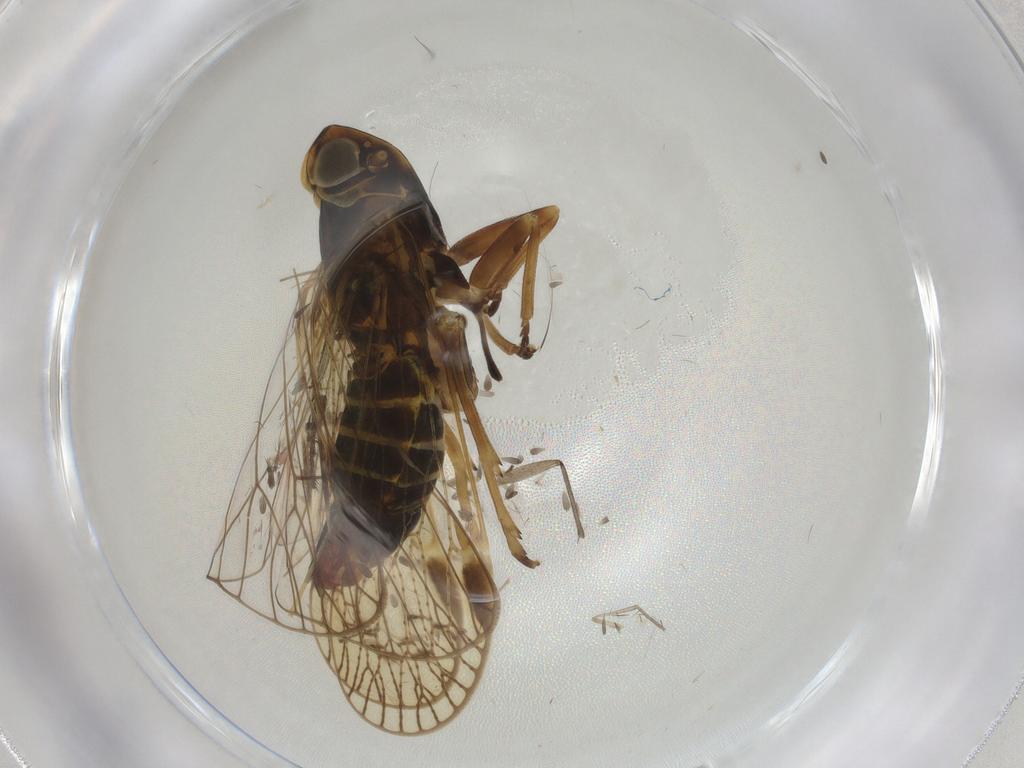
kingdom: Animalia
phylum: Arthropoda
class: Insecta
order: Hemiptera
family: Cixiidae
